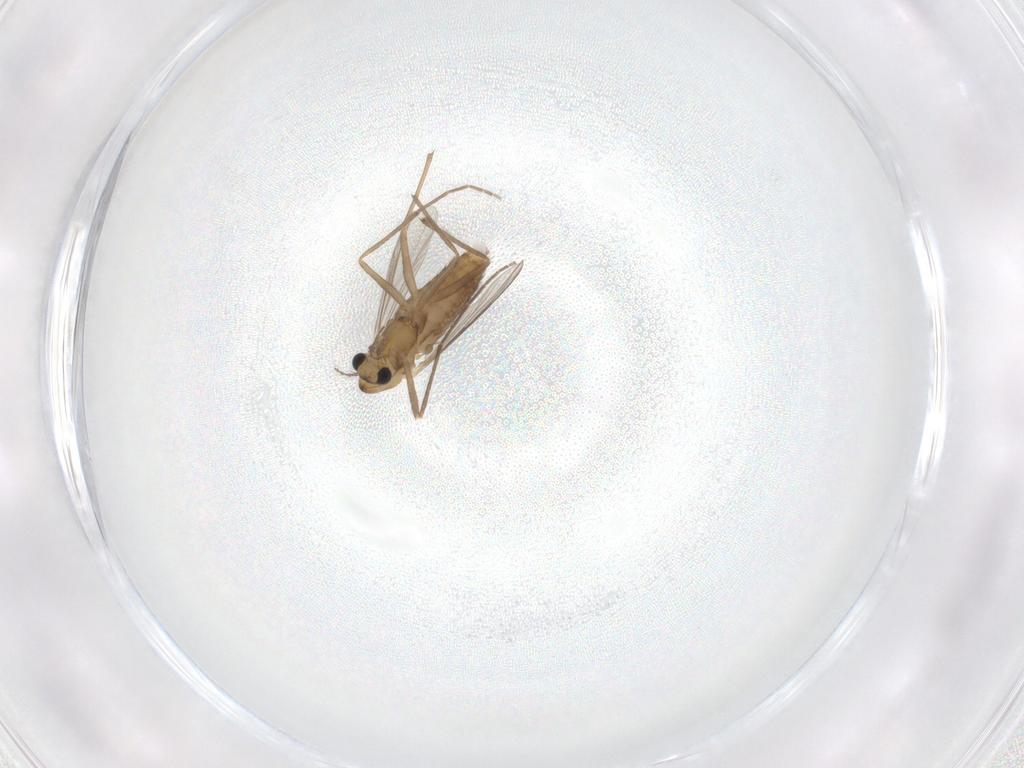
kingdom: Animalia
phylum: Arthropoda
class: Insecta
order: Diptera
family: Chironomidae
